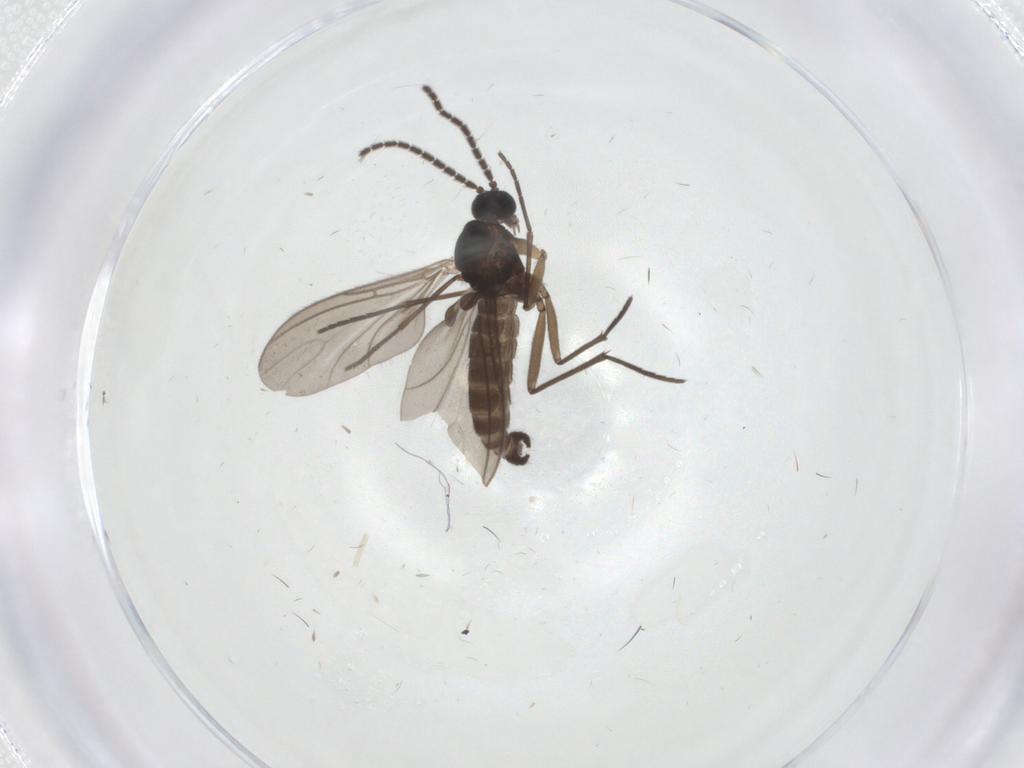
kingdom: Animalia
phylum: Arthropoda
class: Insecta
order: Diptera
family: Sciaridae
